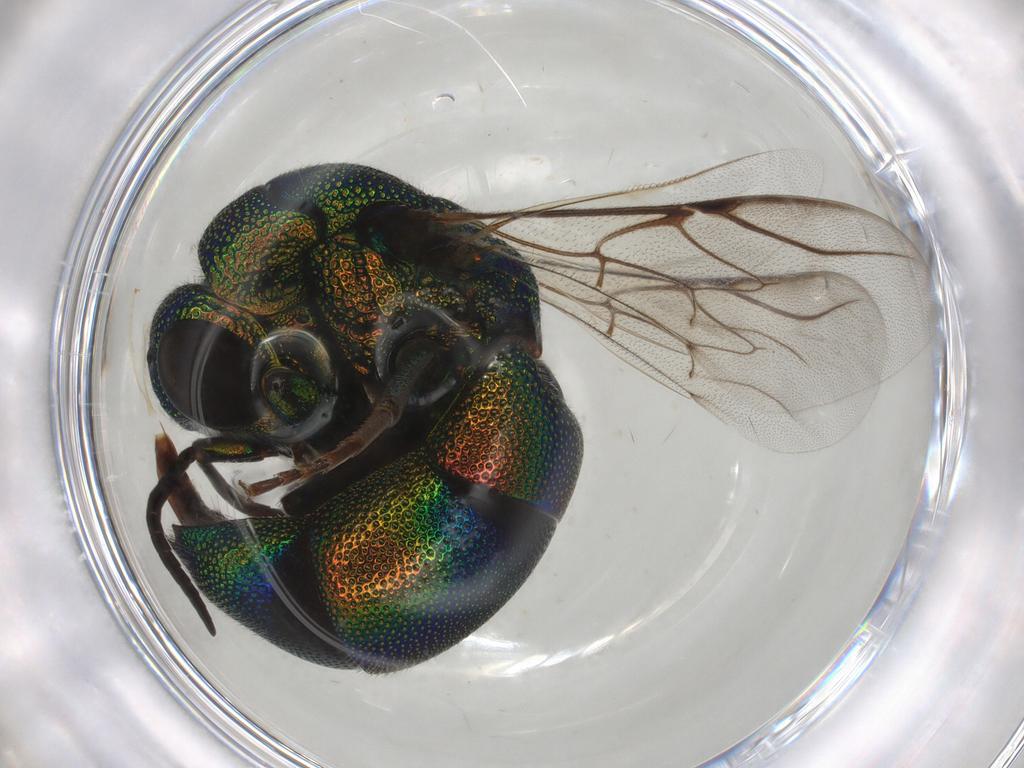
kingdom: Animalia
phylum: Arthropoda
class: Insecta
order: Hymenoptera
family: Chrysididae
